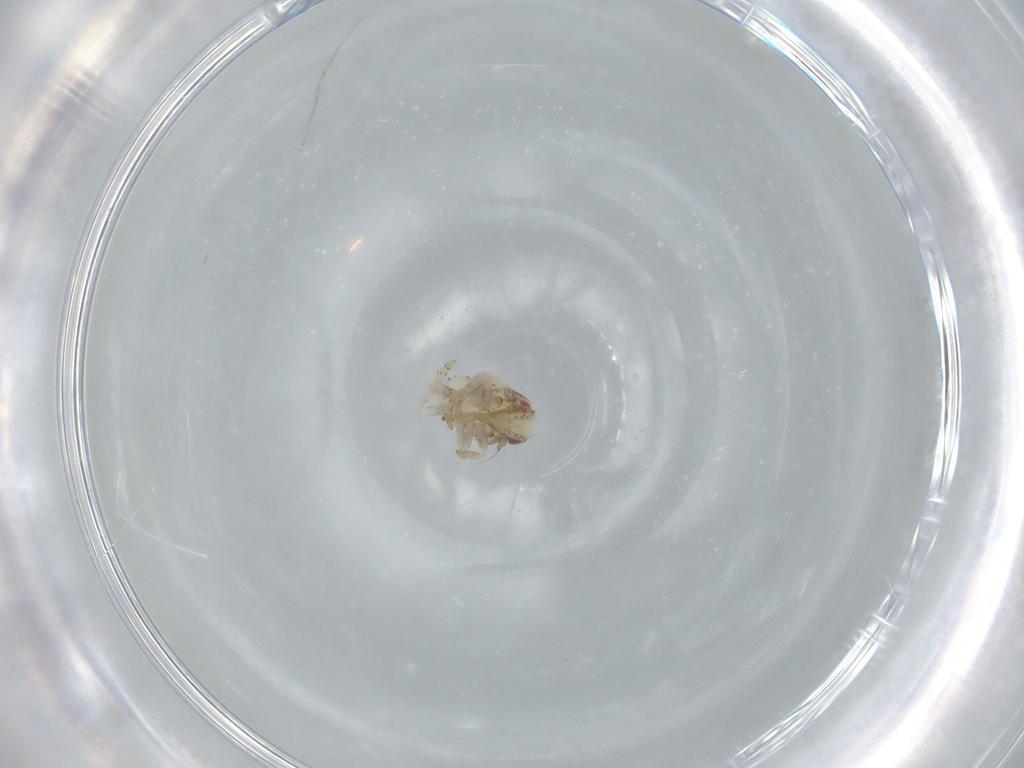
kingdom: Animalia
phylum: Arthropoda
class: Insecta
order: Hemiptera
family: Acanaloniidae
